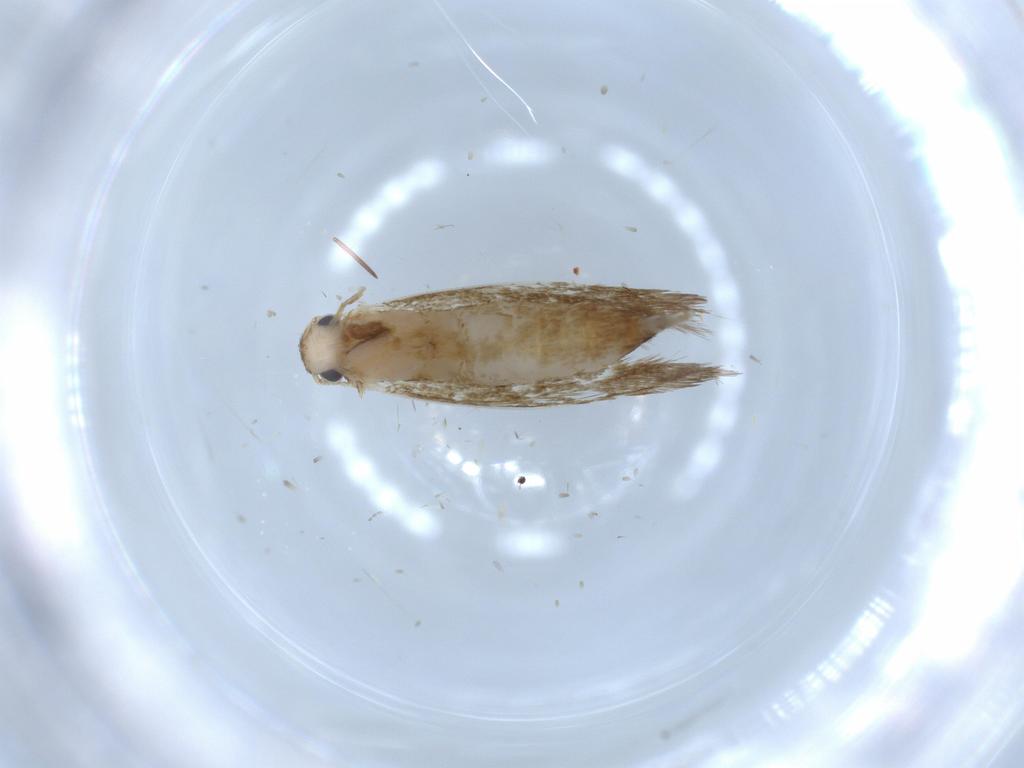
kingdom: Animalia
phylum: Arthropoda
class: Insecta
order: Lepidoptera
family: Tineidae
